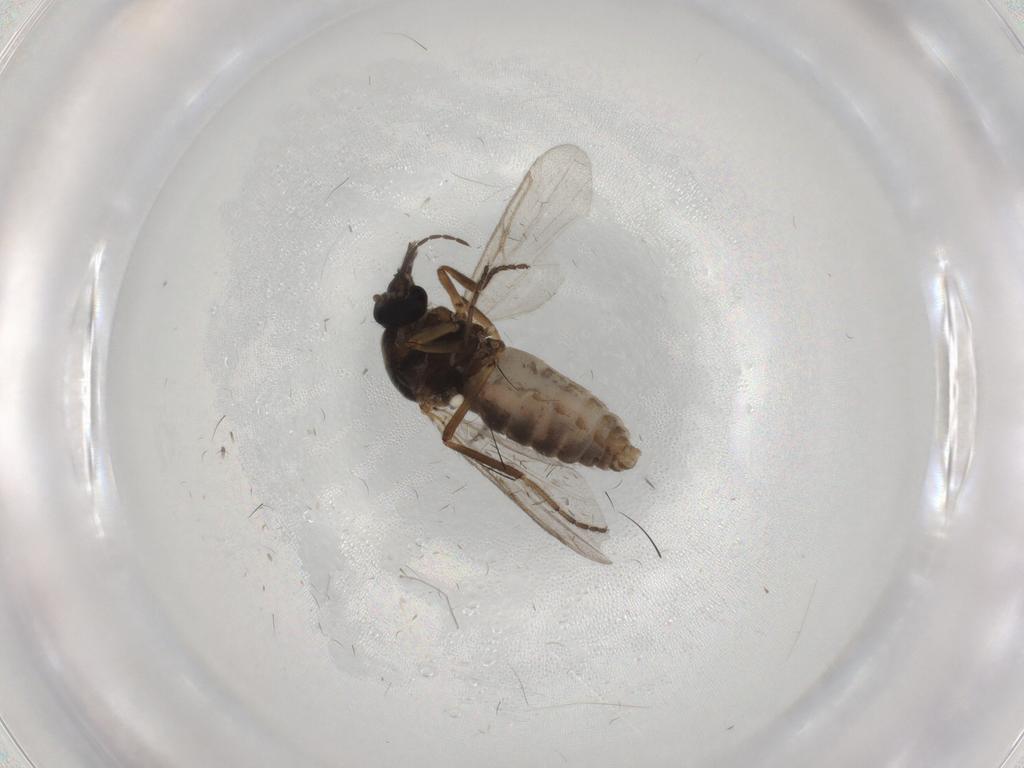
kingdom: Animalia
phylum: Arthropoda
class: Insecta
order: Diptera
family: Ceratopogonidae
